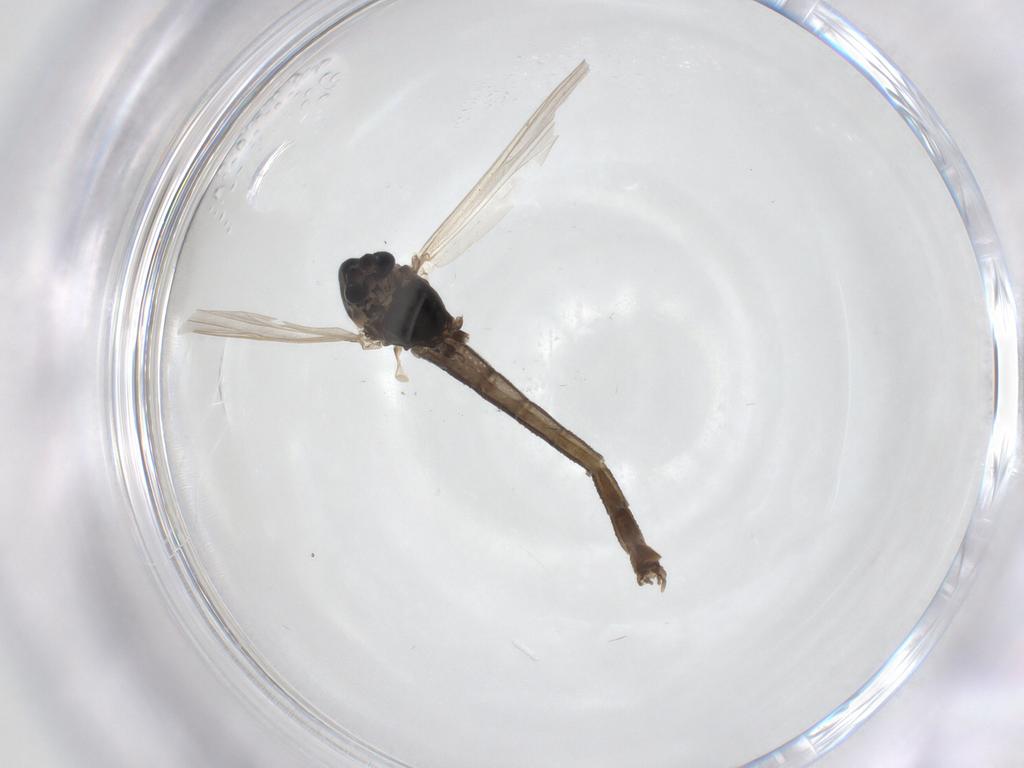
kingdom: Animalia
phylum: Arthropoda
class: Insecta
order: Diptera
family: Chironomidae
